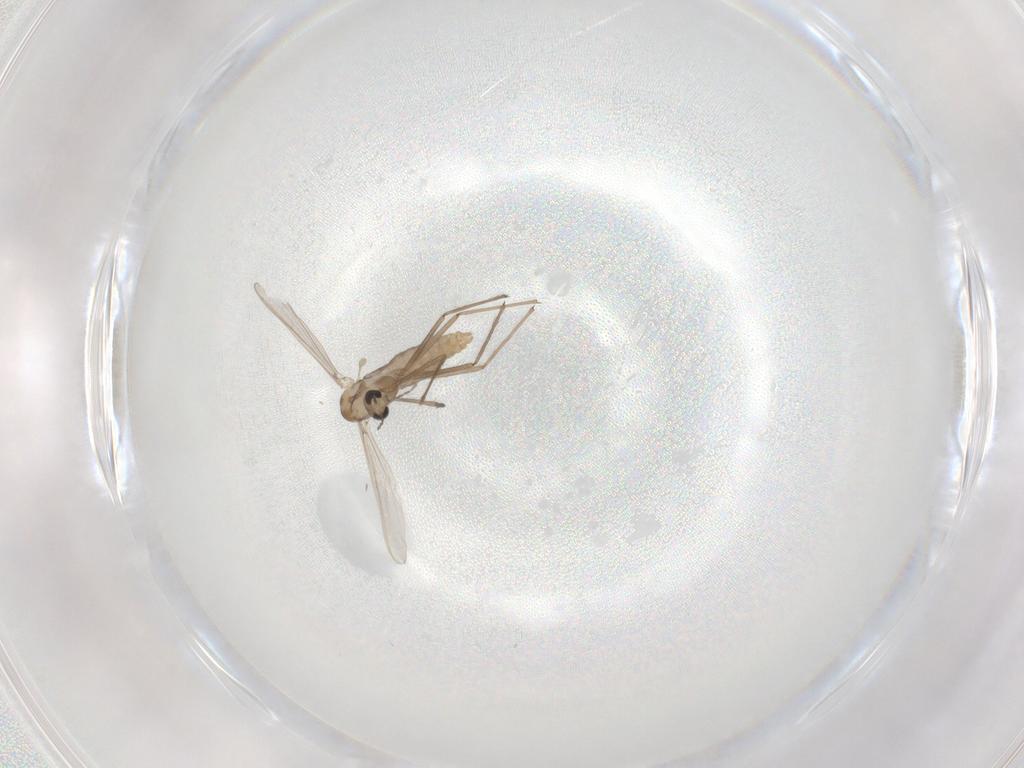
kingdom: Animalia
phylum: Arthropoda
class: Insecta
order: Diptera
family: Chironomidae
